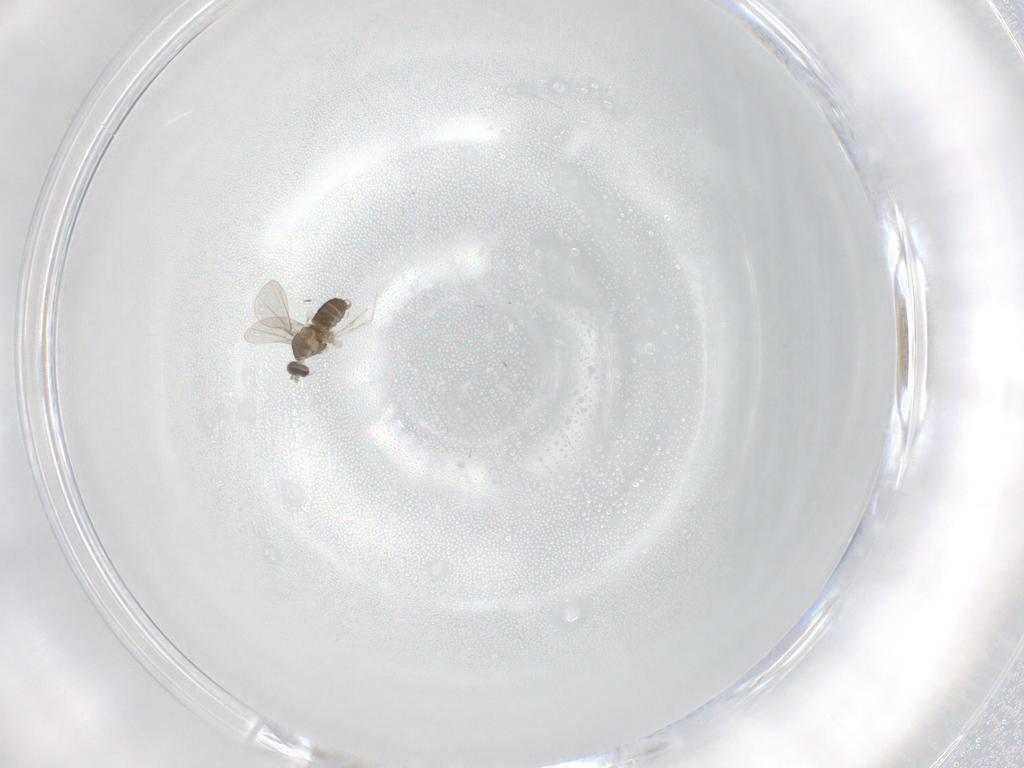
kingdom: Animalia
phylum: Arthropoda
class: Insecta
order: Diptera
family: Cecidomyiidae
